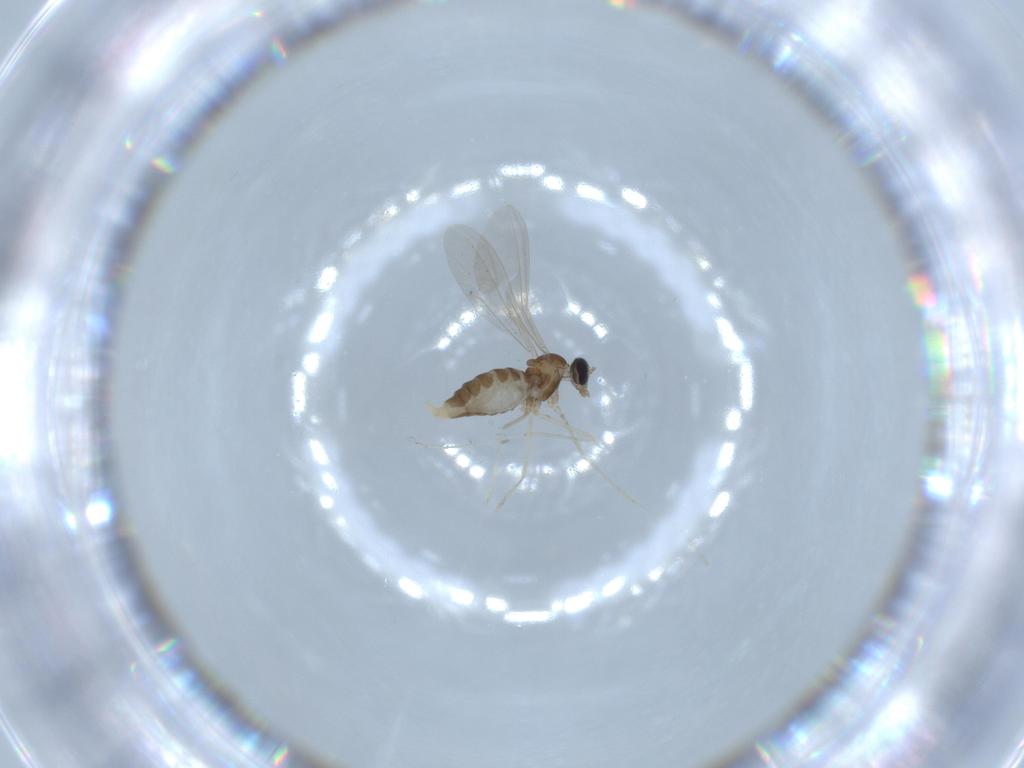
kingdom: Animalia
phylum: Arthropoda
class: Insecta
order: Diptera
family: Cecidomyiidae
